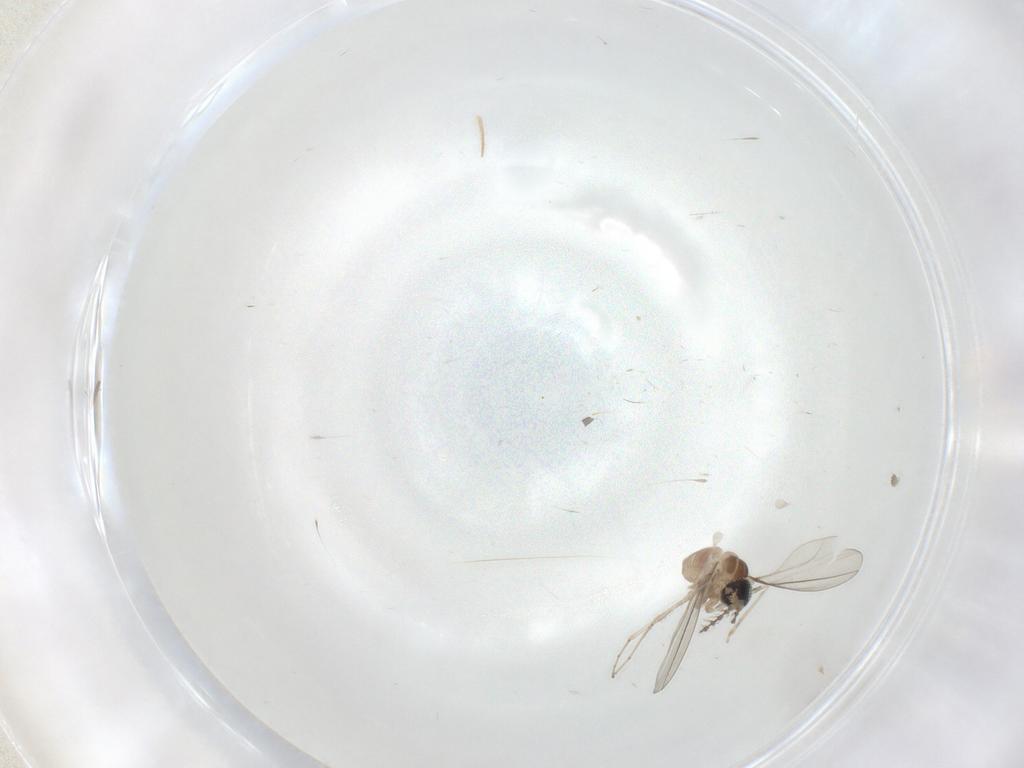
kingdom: Animalia
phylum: Arthropoda
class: Insecta
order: Diptera
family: Cecidomyiidae
